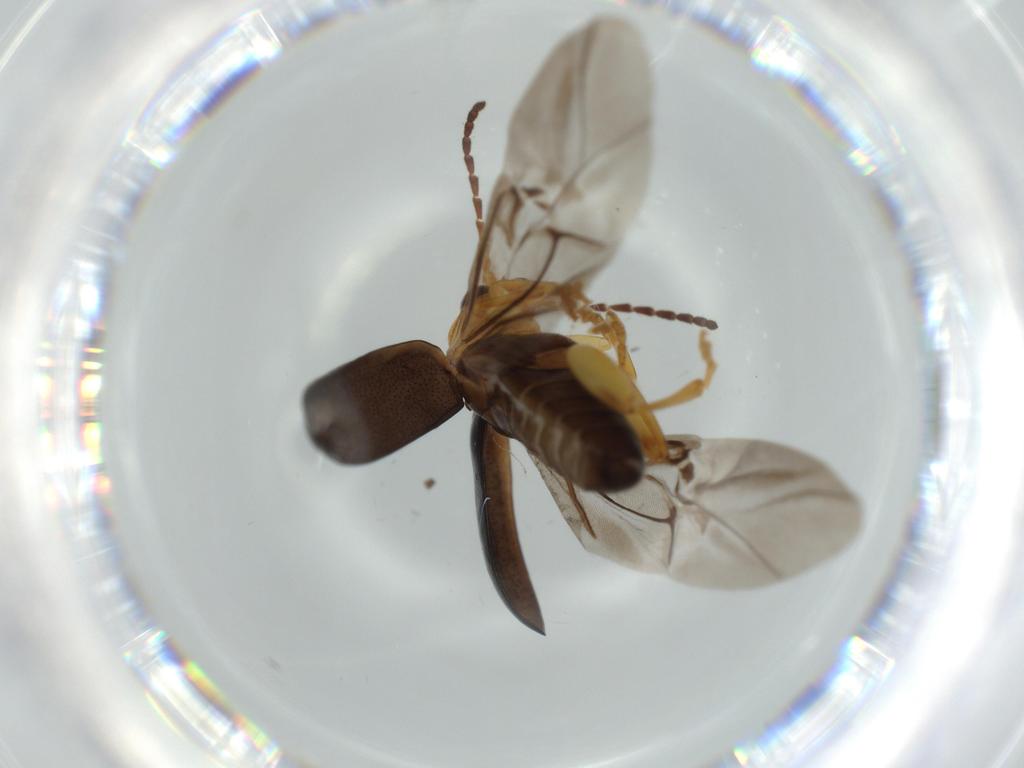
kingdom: Animalia
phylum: Arthropoda
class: Insecta
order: Coleoptera
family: Chrysomelidae
